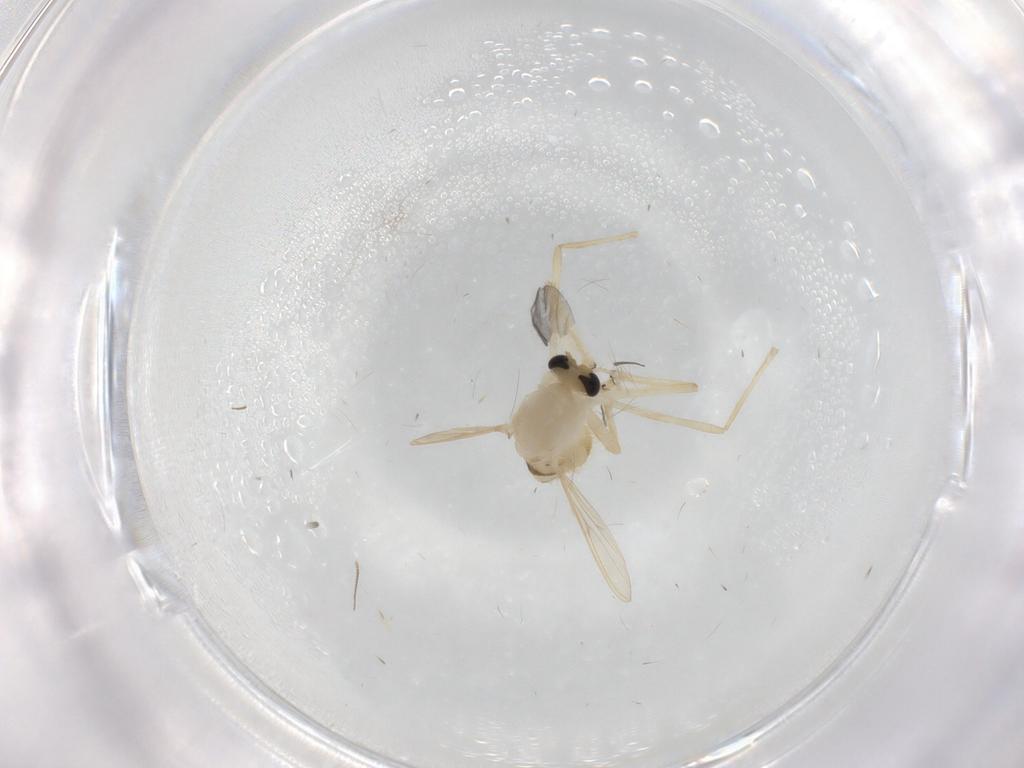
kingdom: Animalia
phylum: Arthropoda
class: Insecta
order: Diptera
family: Chironomidae
